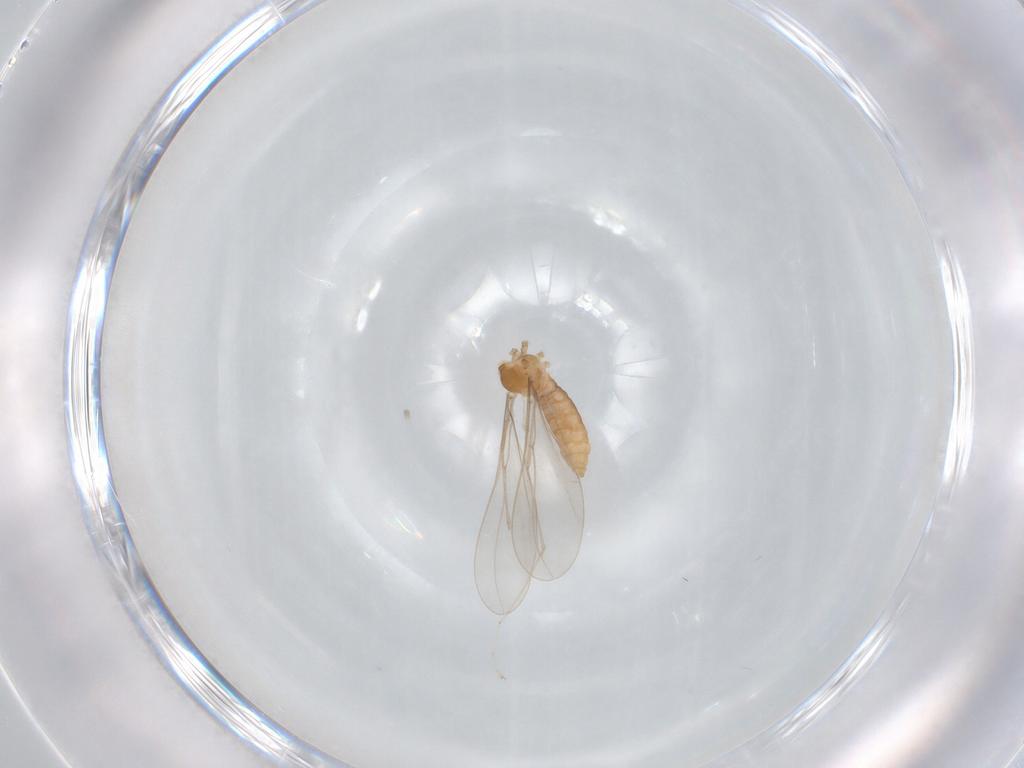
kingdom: Animalia
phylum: Arthropoda
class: Insecta
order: Diptera
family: Cecidomyiidae
